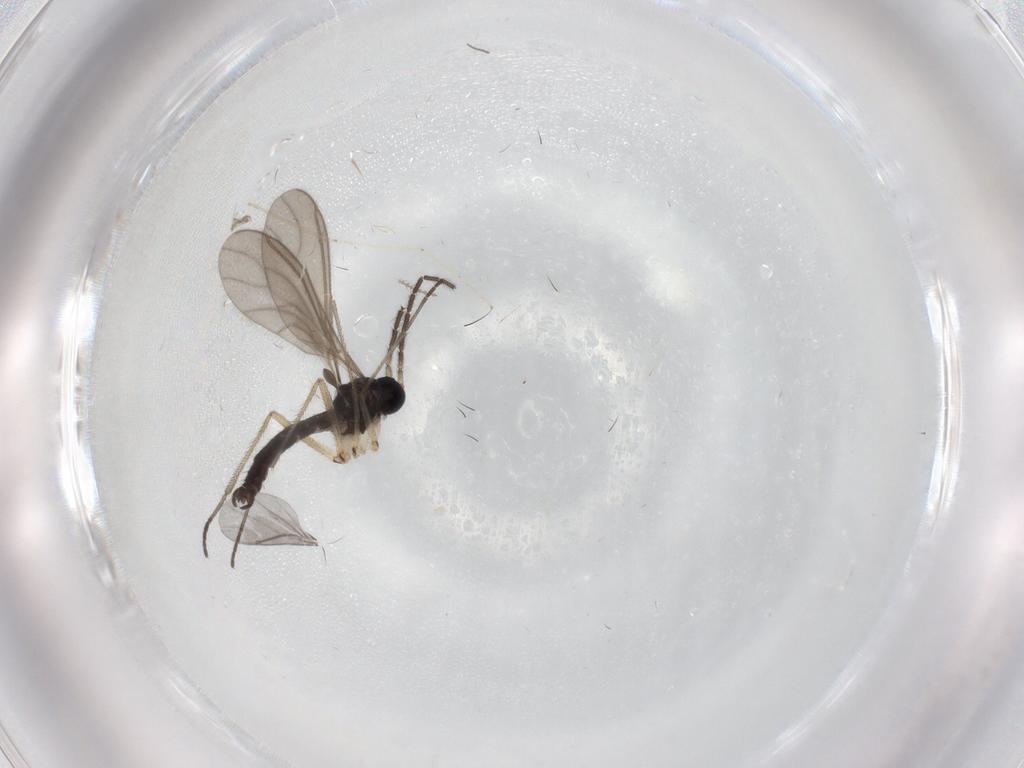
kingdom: Animalia
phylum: Arthropoda
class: Insecta
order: Diptera
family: Sciaridae
